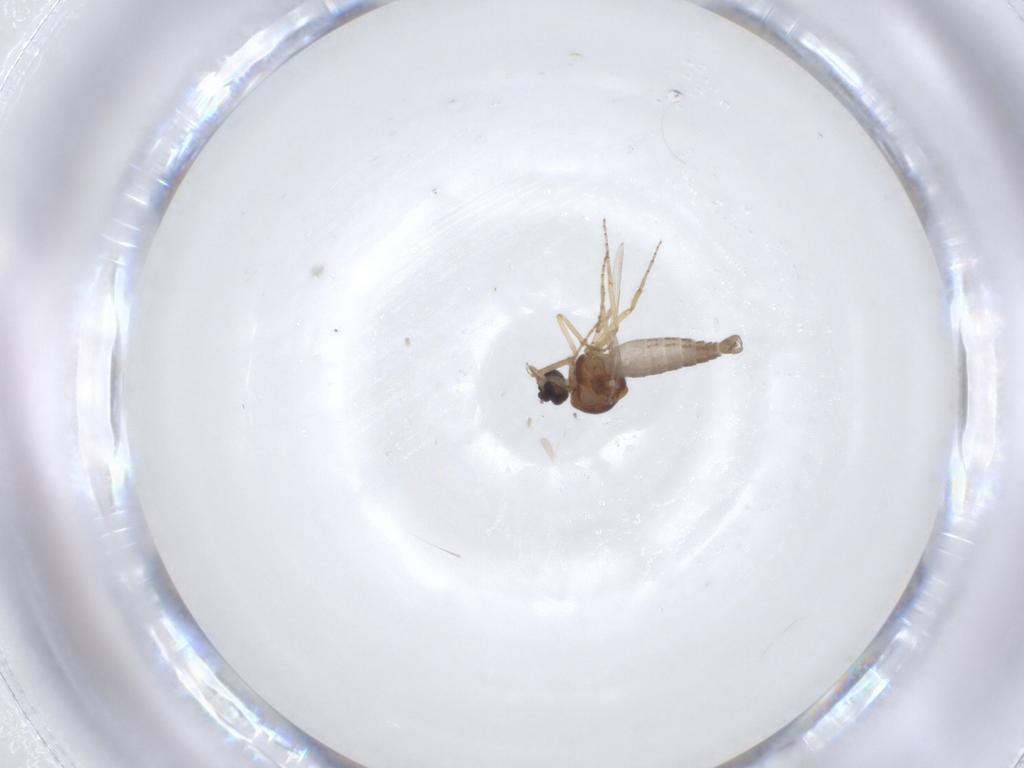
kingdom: Animalia
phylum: Arthropoda
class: Insecta
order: Diptera
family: Ceratopogonidae
